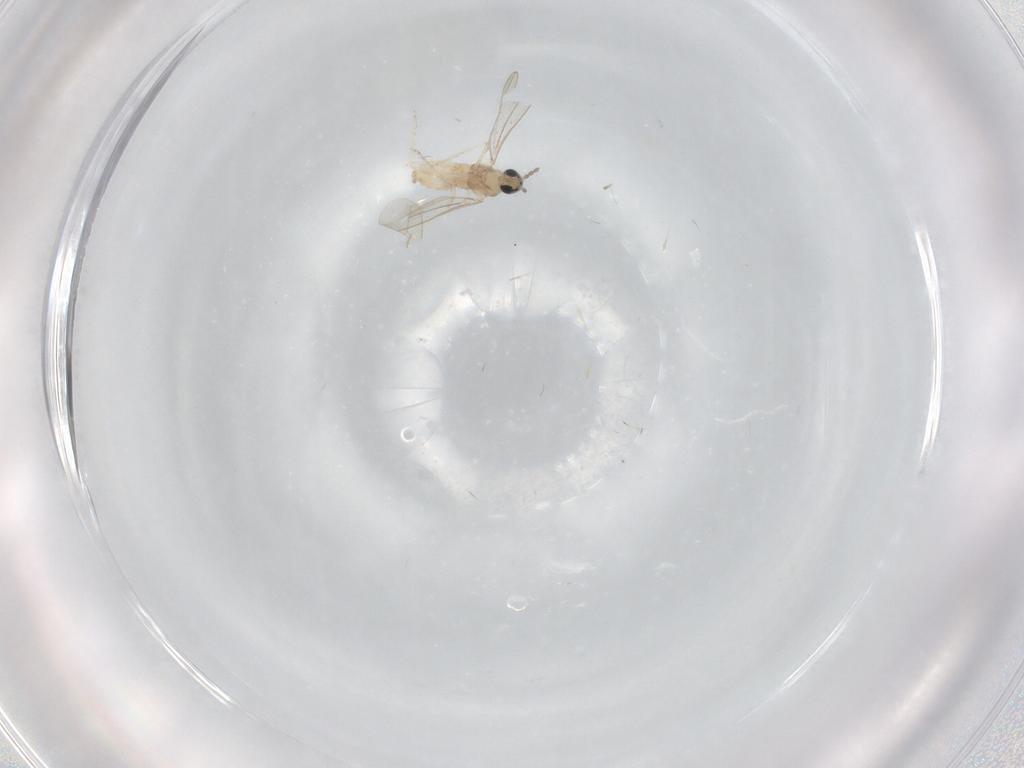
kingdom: Animalia
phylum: Arthropoda
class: Insecta
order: Diptera
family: Cecidomyiidae
